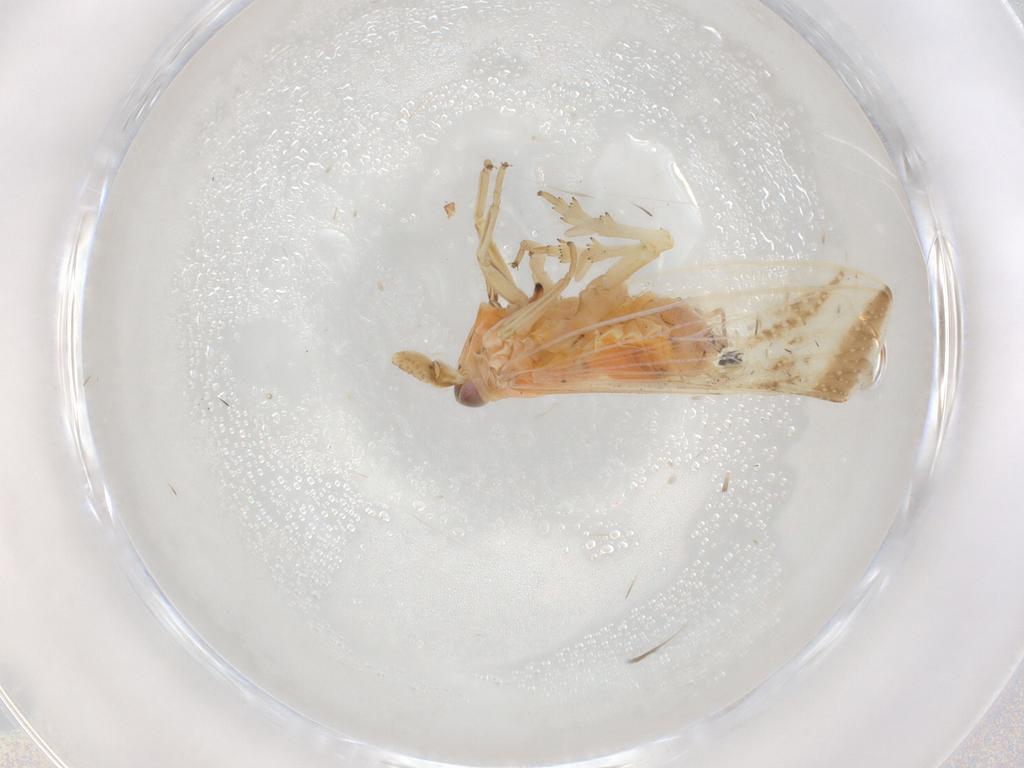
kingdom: Animalia
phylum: Arthropoda
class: Insecta
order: Hemiptera
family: Delphacidae
